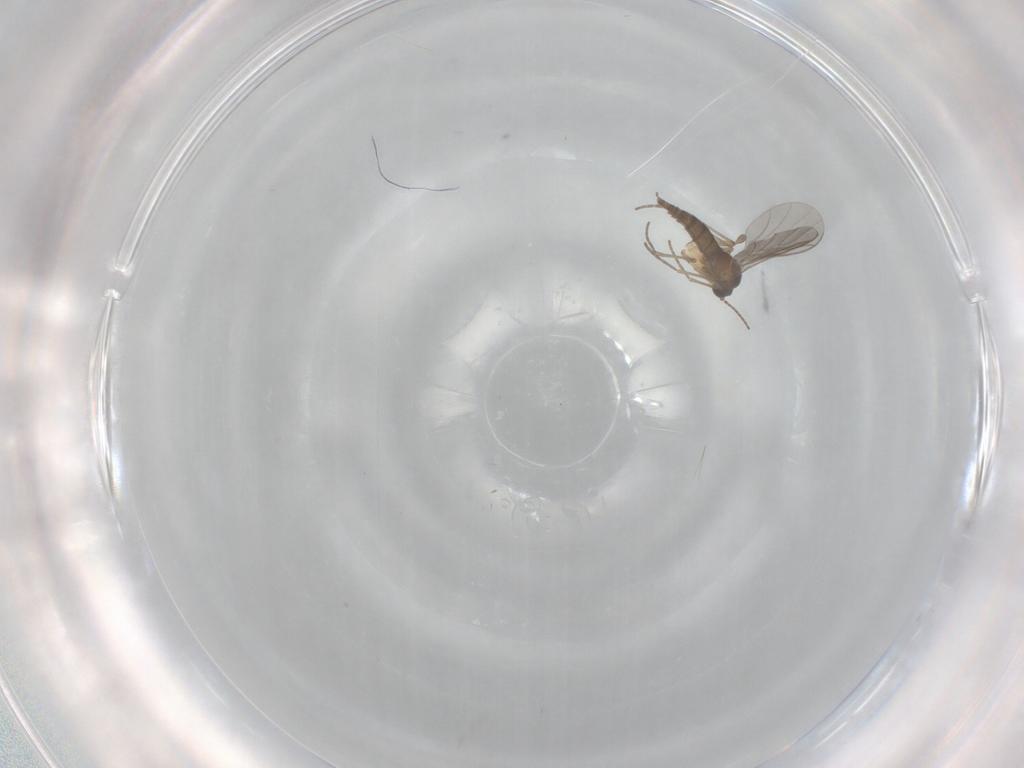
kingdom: Animalia
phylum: Arthropoda
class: Insecta
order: Diptera
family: Sciaridae
